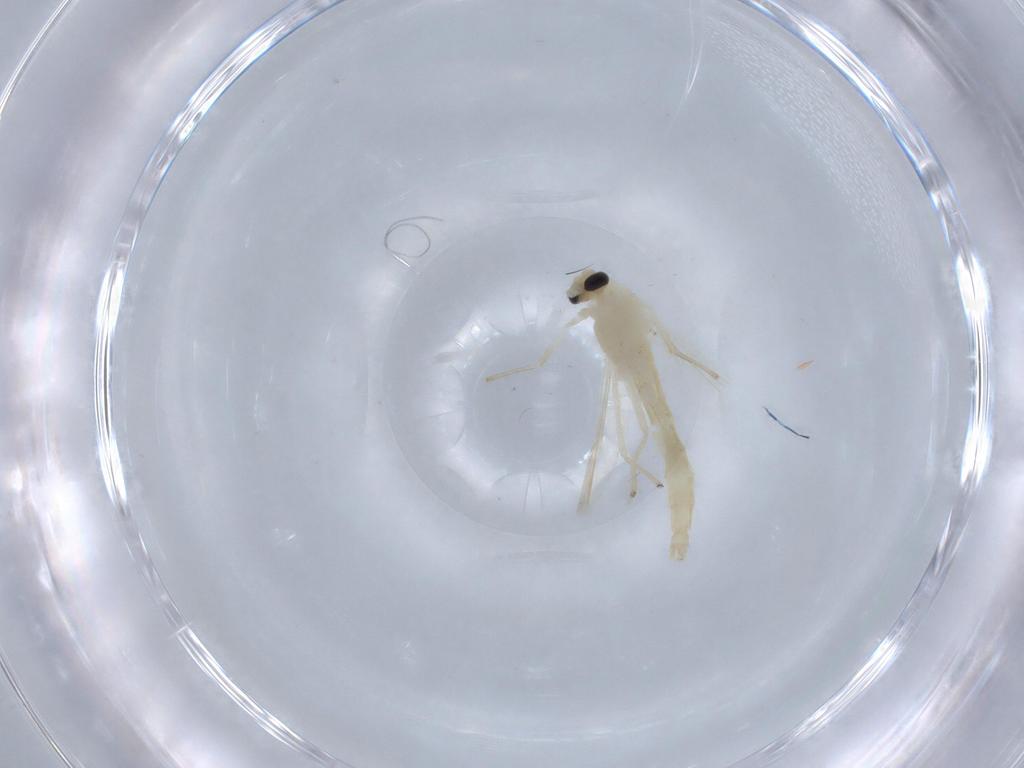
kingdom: Animalia
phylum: Arthropoda
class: Insecta
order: Diptera
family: Chironomidae
